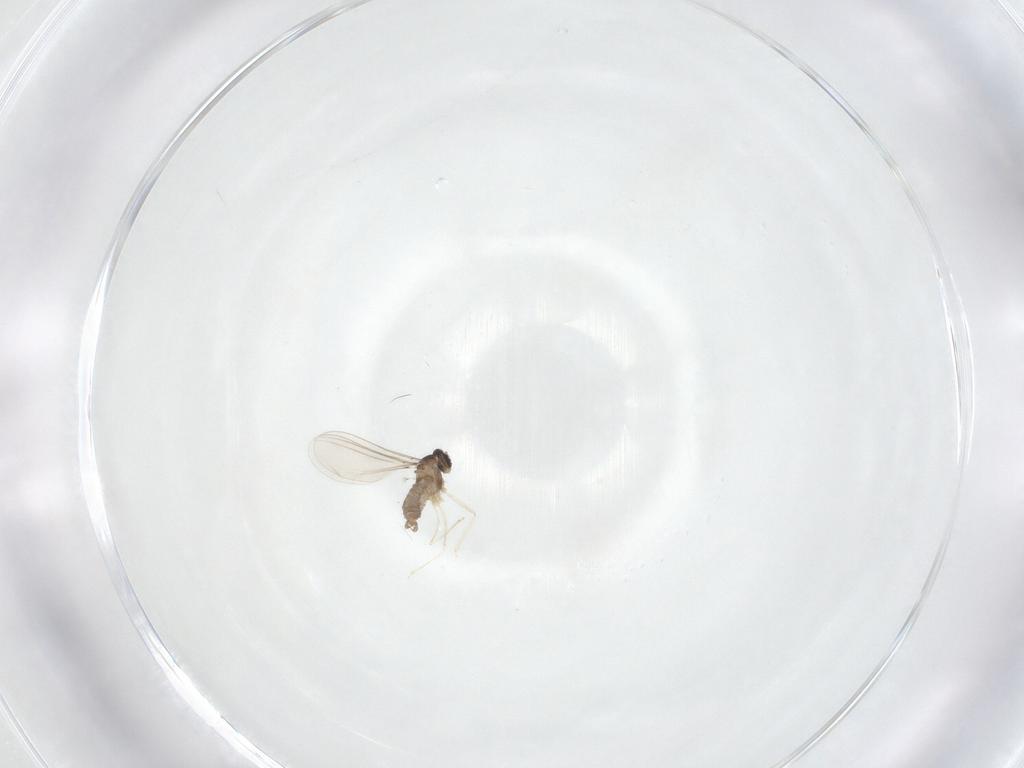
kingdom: Animalia
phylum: Arthropoda
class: Insecta
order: Diptera
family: Cecidomyiidae
